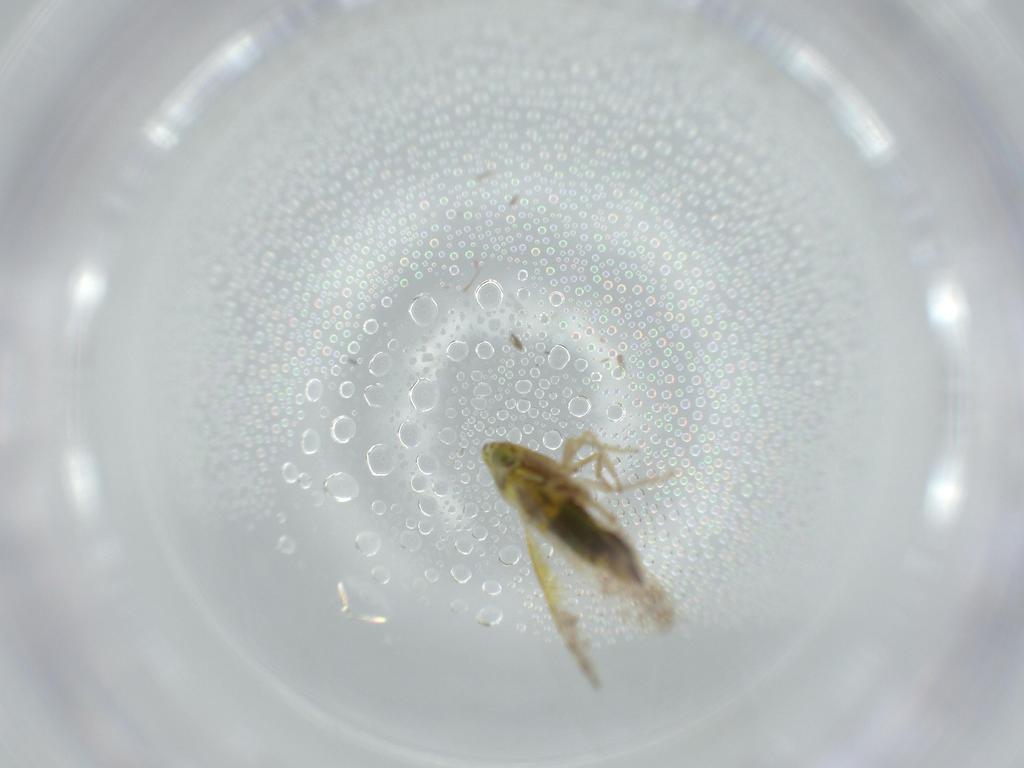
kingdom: Animalia
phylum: Arthropoda
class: Insecta
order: Hemiptera
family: Cicadellidae
